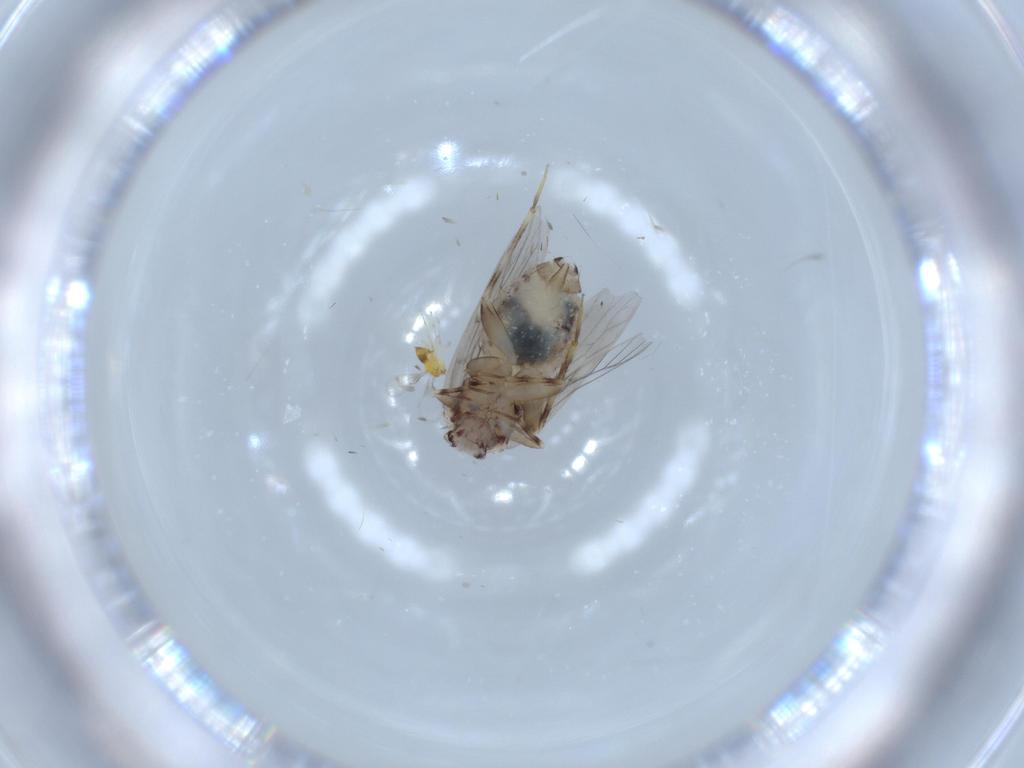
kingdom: Animalia
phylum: Arthropoda
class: Insecta
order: Psocodea
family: Lepidopsocidae
